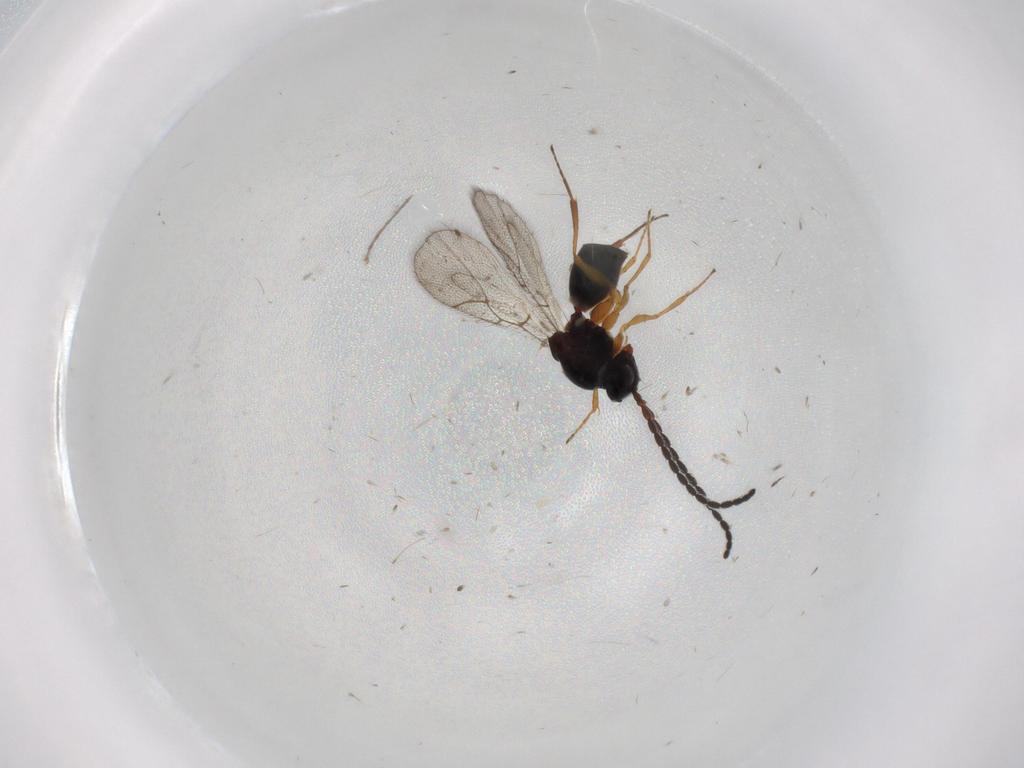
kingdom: Animalia
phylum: Arthropoda
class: Insecta
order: Hymenoptera
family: Figitidae
